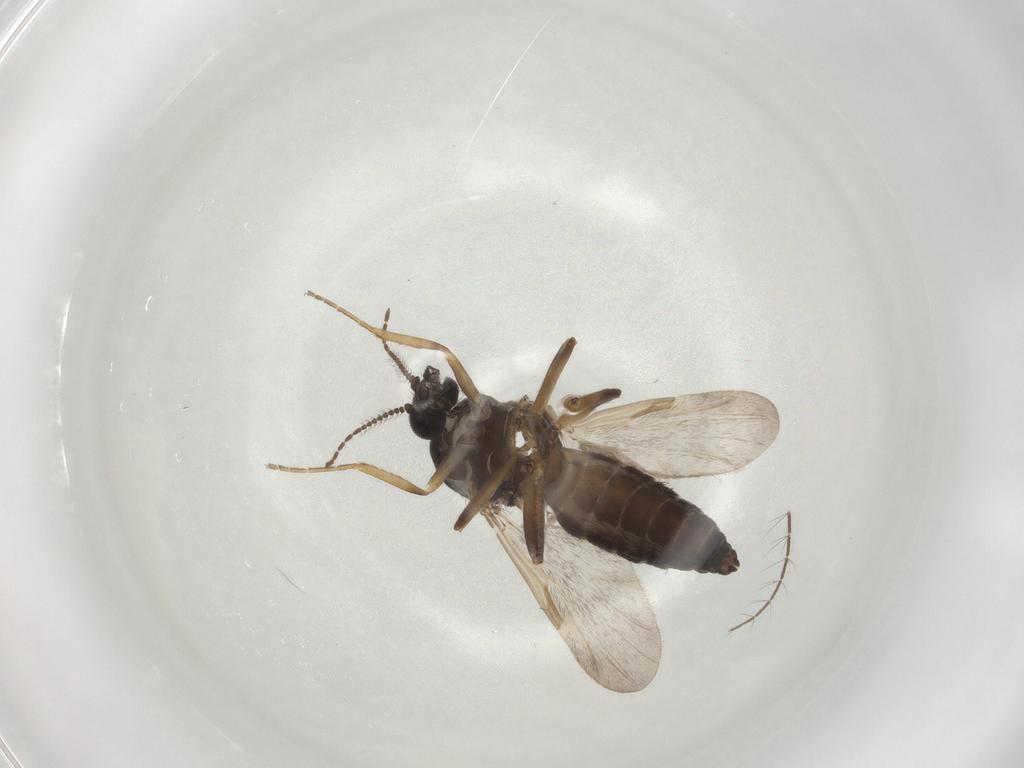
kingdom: Animalia
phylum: Arthropoda
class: Insecta
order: Diptera
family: Ceratopogonidae
